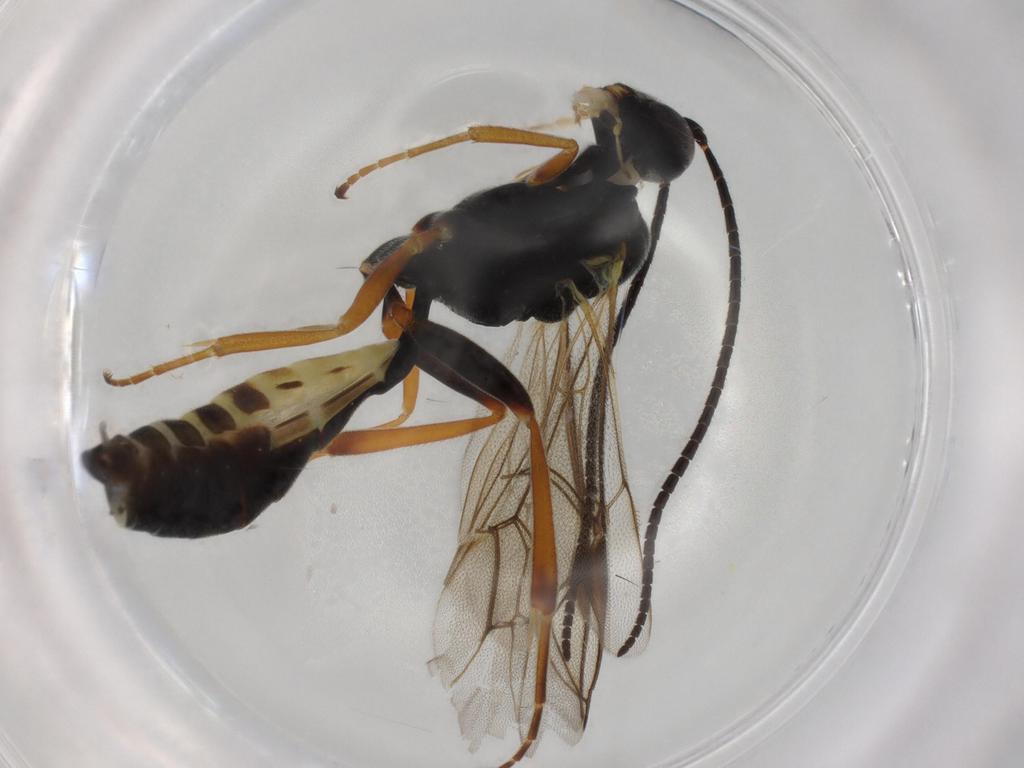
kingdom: Animalia
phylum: Arthropoda
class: Insecta
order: Hymenoptera
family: Ichneumonidae
